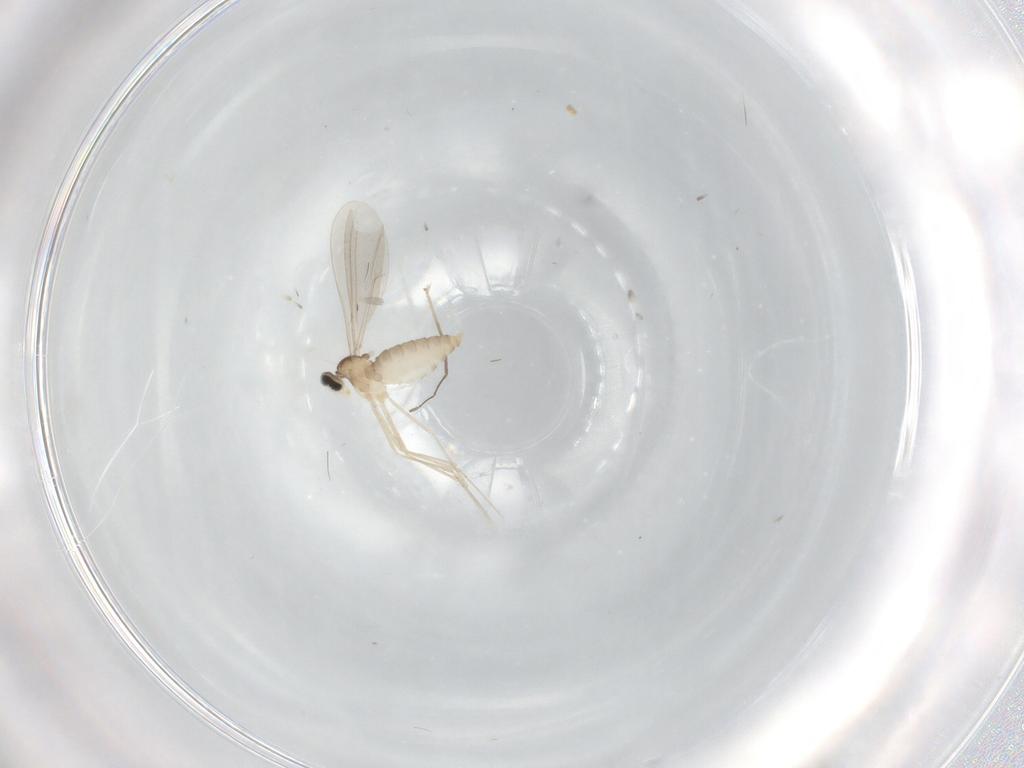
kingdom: Animalia
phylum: Arthropoda
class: Insecta
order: Diptera
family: Chironomidae
